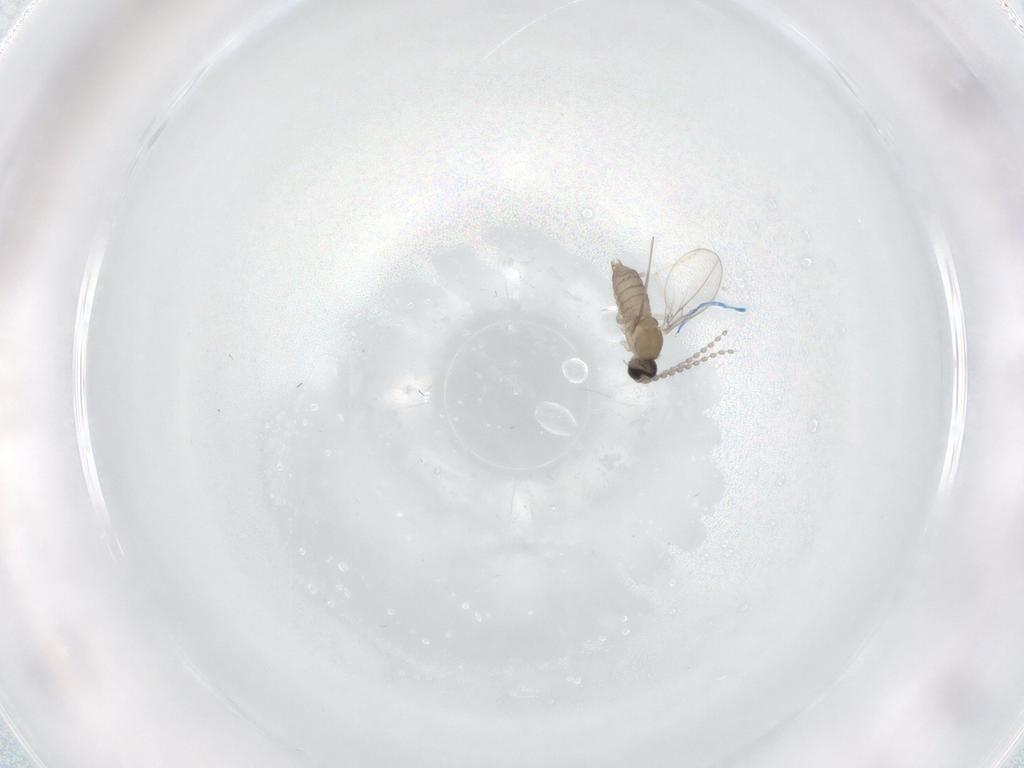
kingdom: Animalia
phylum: Arthropoda
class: Insecta
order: Diptera
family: Cecidomyiidae
